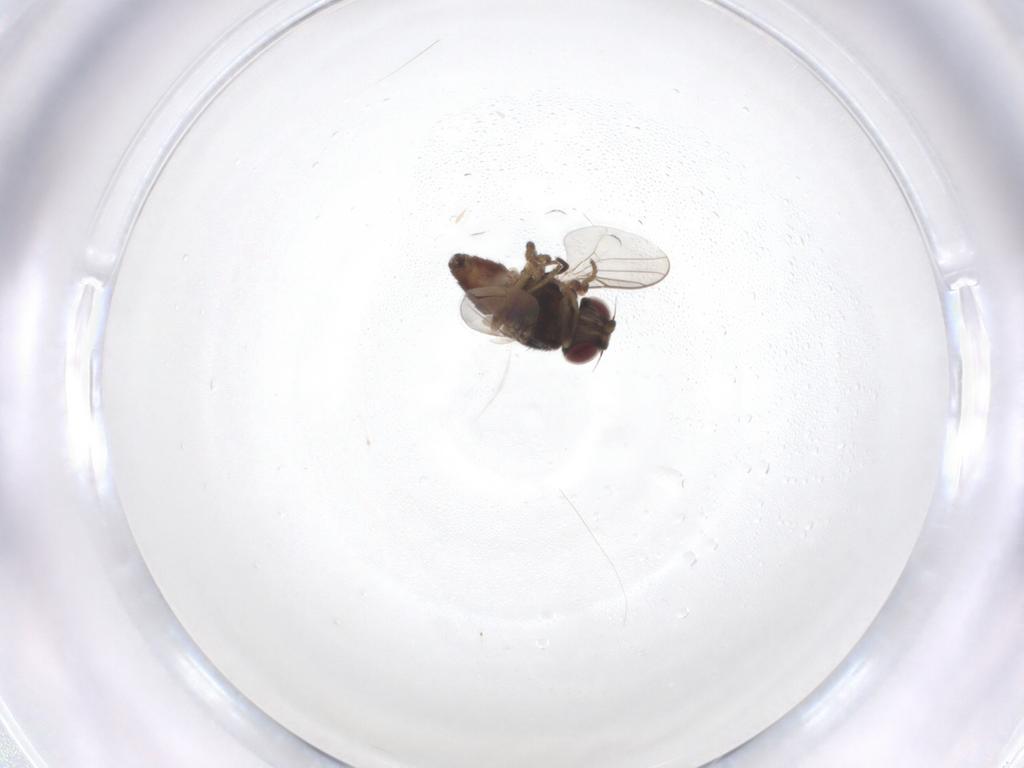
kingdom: Animalia
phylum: Arthropoda
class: Insecta
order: Diptera
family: Chloropidae
